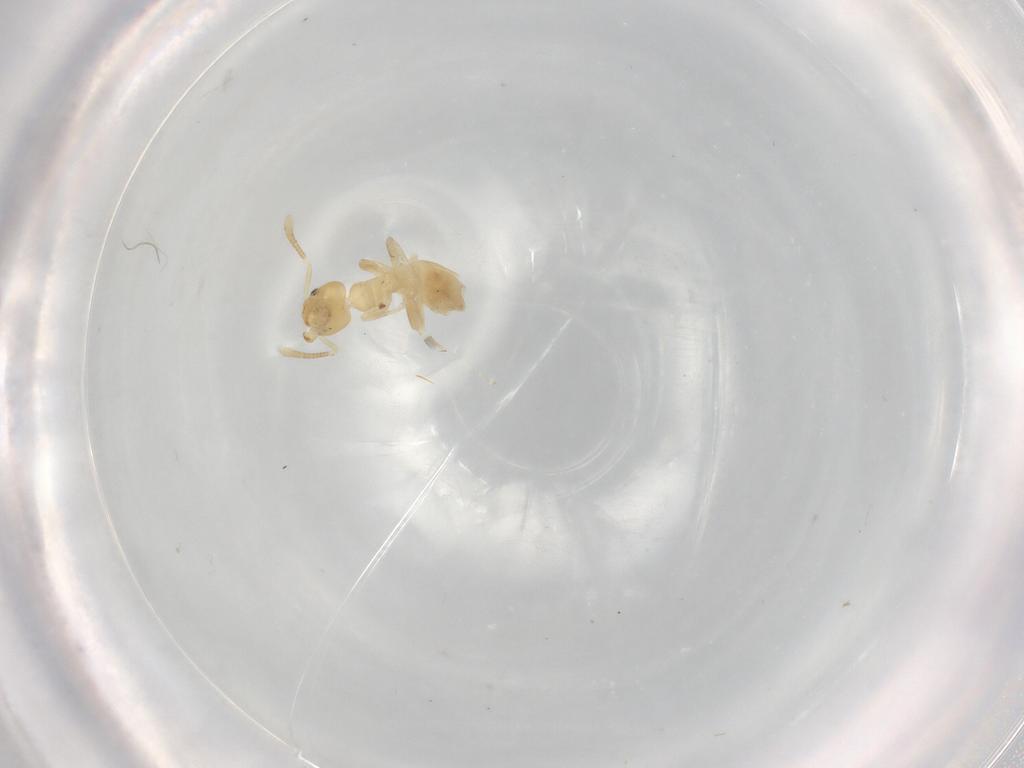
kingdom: Animalia
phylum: Arthropoda
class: Insecta
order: Hymenoptera
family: Ichneumonidae
